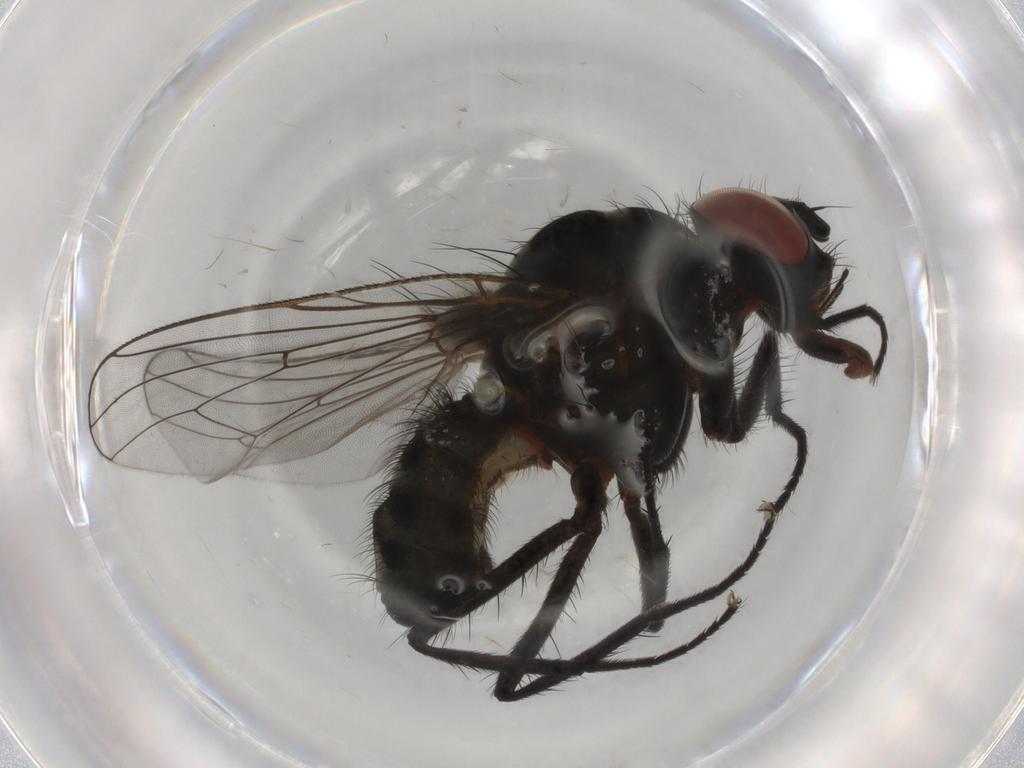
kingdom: Animalia
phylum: Arthropoda
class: Insecta
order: Diptera
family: Anthomyiidae
